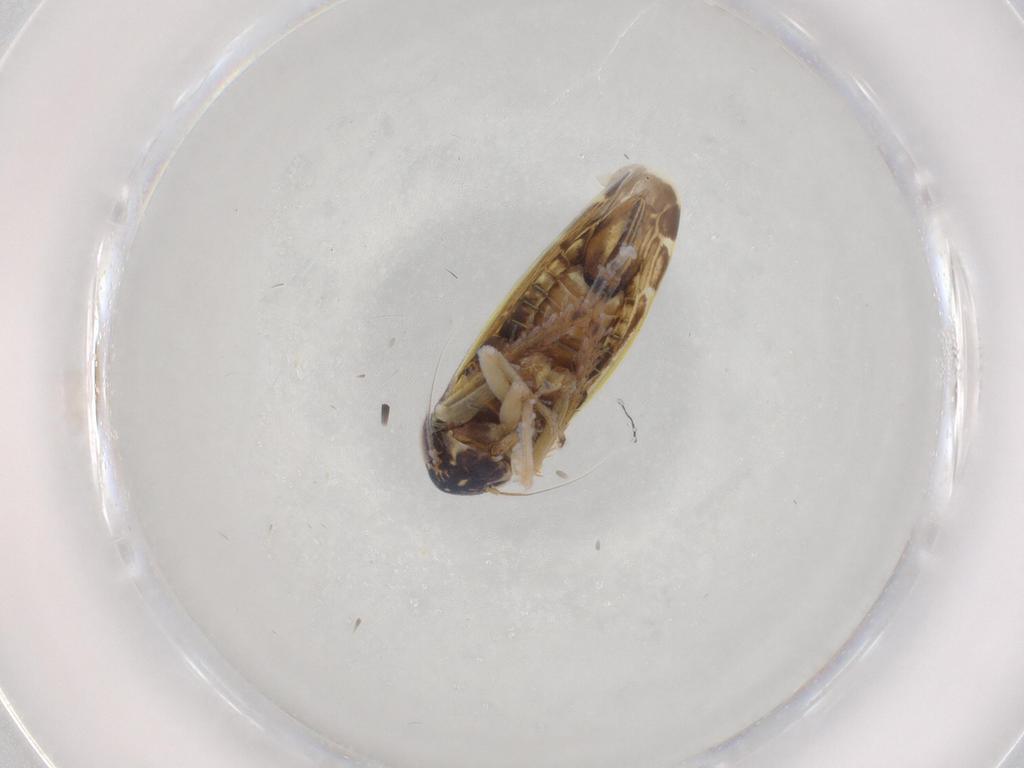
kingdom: Animalia
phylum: Arthropoda
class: Insecta
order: Hemiptera
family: Cicadellidae
